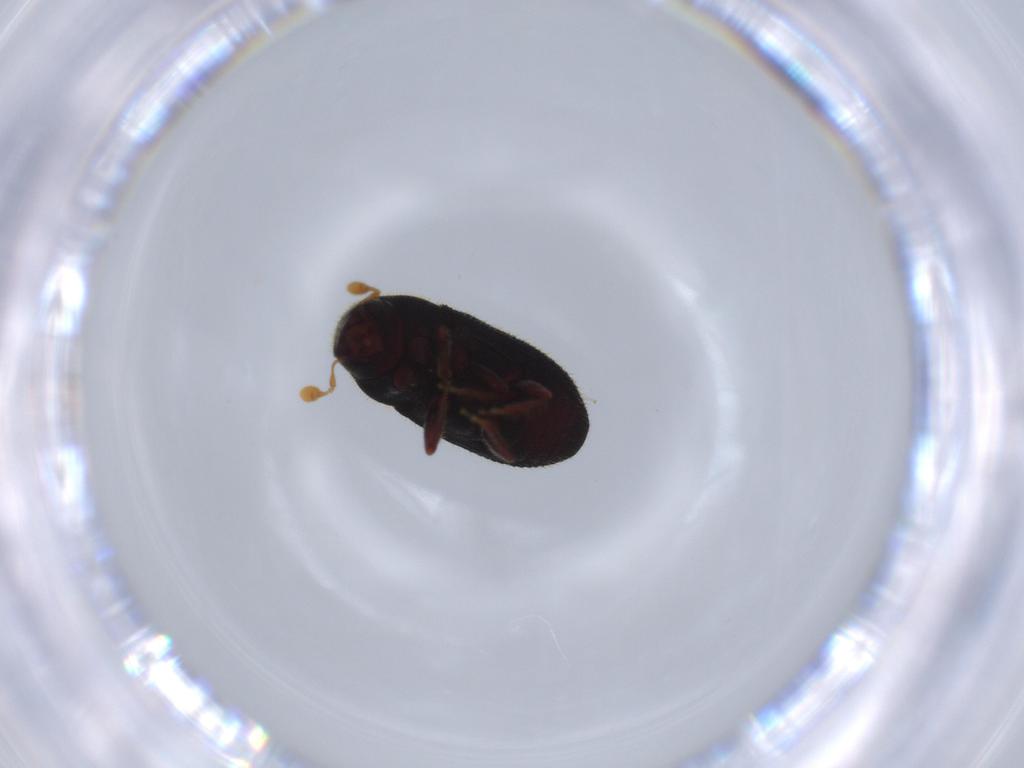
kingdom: Animalia
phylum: Arthropoda
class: Insecta
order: Coleoptera
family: Curculionidae
